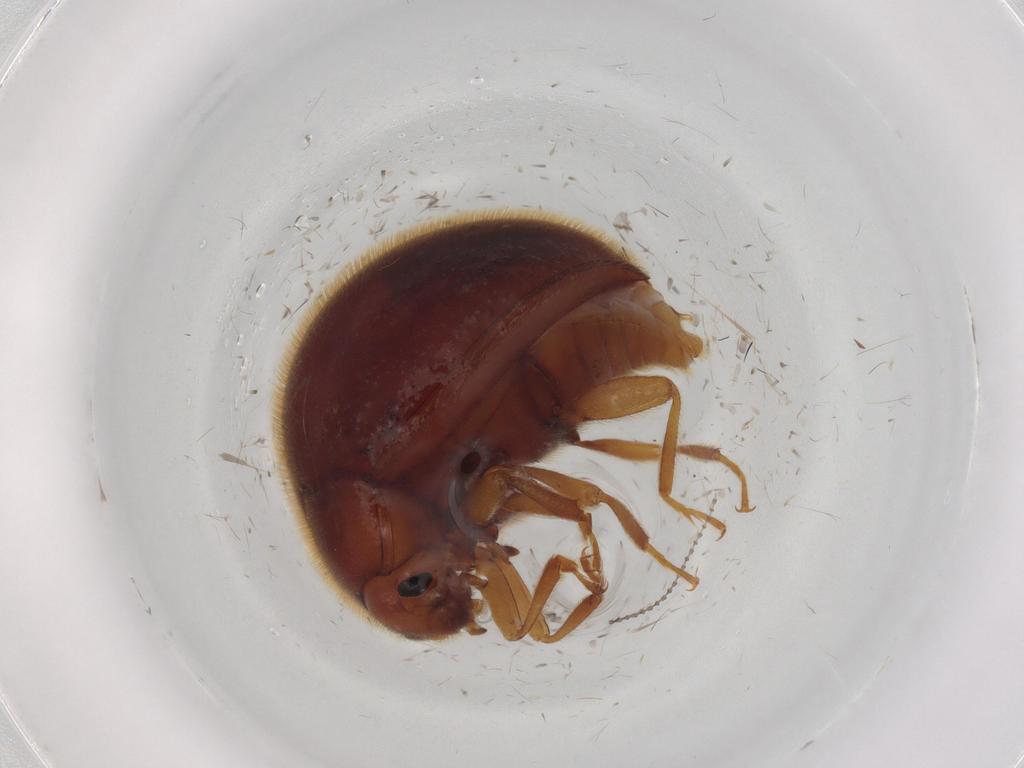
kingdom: Animalia
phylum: Arthropoda
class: Insecta
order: Coleoptera
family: Anamorphidae
